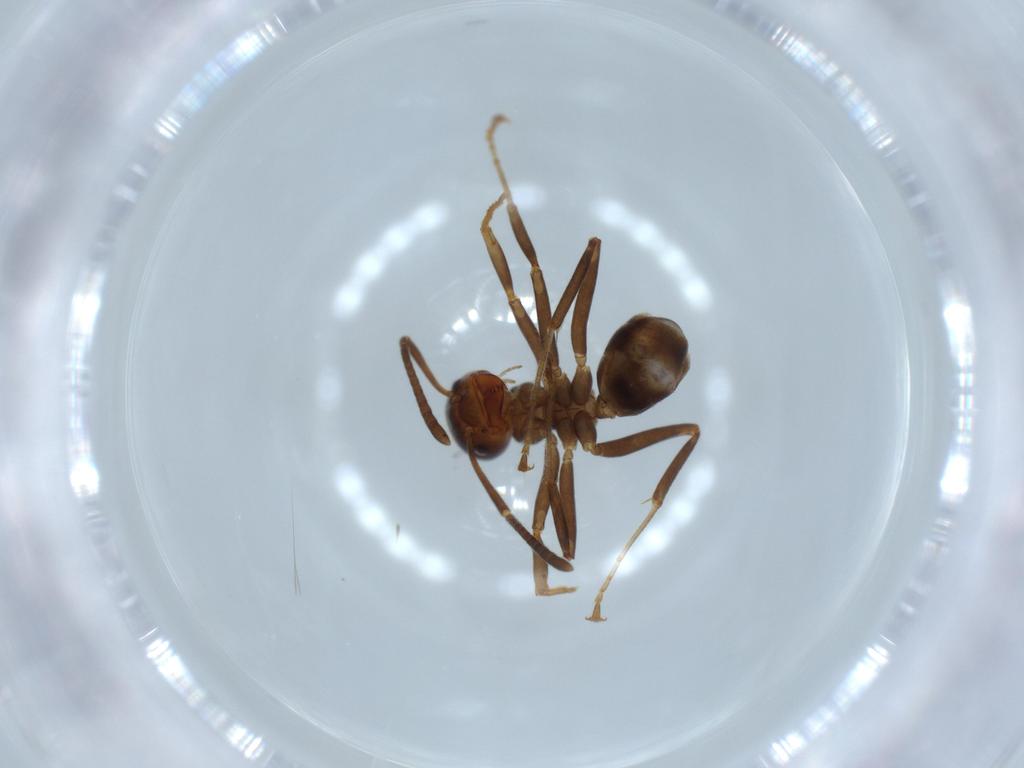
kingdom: Animalia
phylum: Arthropoda
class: Insecta
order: Hymenoptera
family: Formicidae
